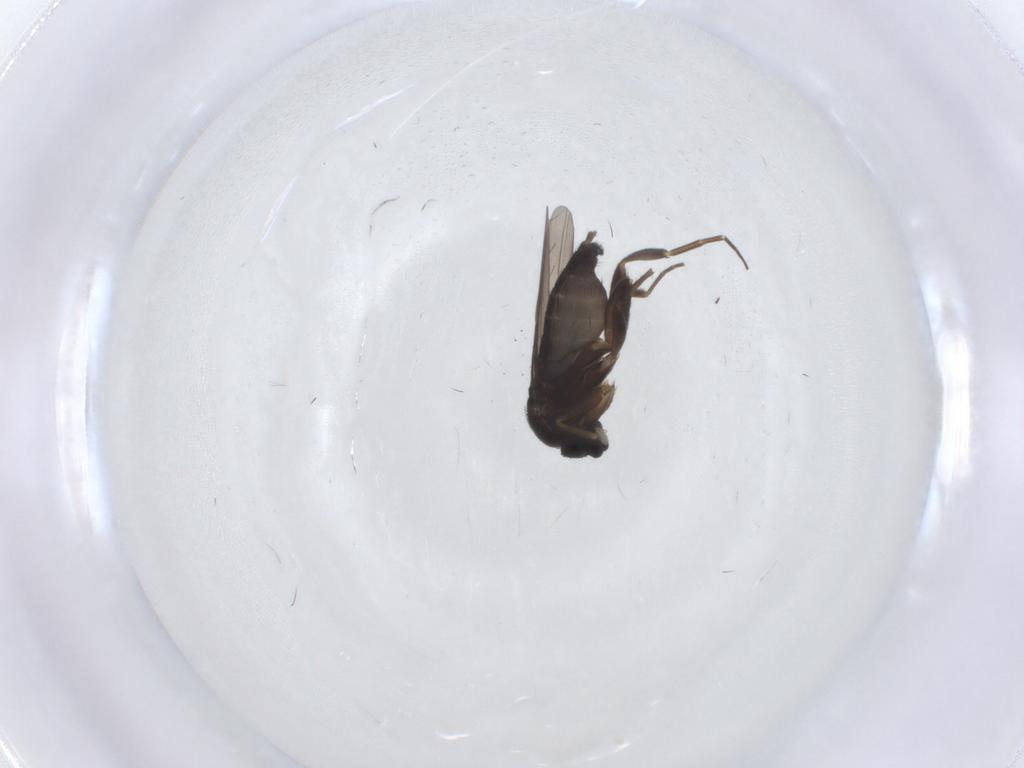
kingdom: Animalia
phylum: Arthropoda
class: Insecta
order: Diptera
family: Phoridae
